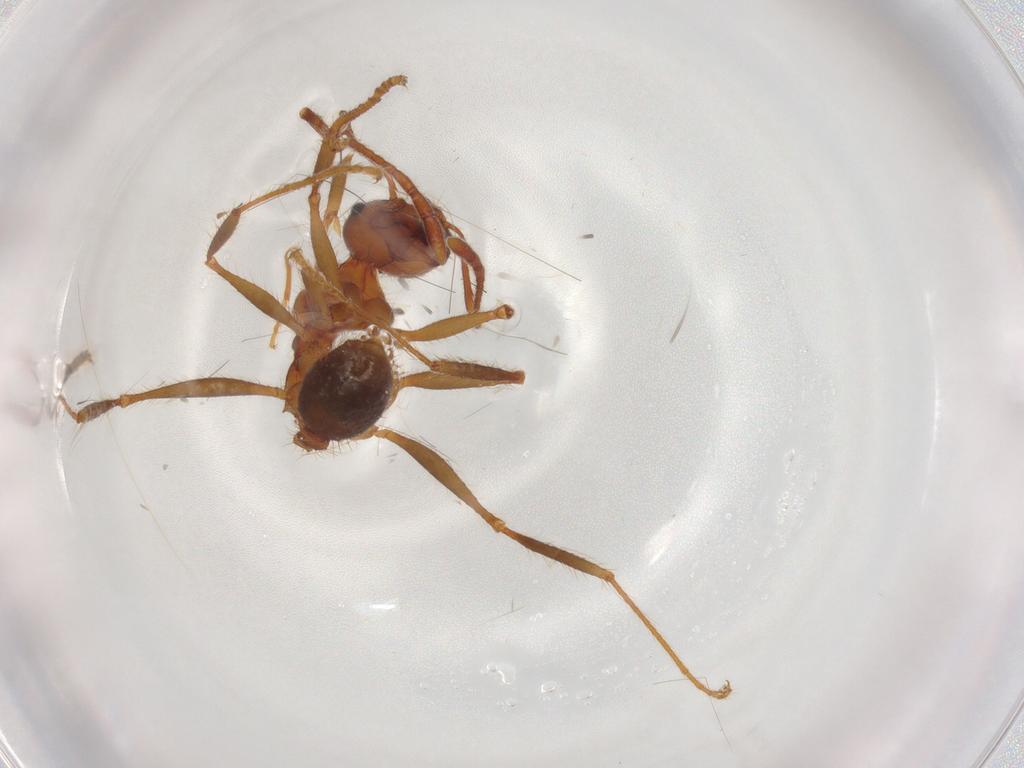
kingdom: Animalia
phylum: Arthropoda
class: Insecta
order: Hymenoptera
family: Formicidae
